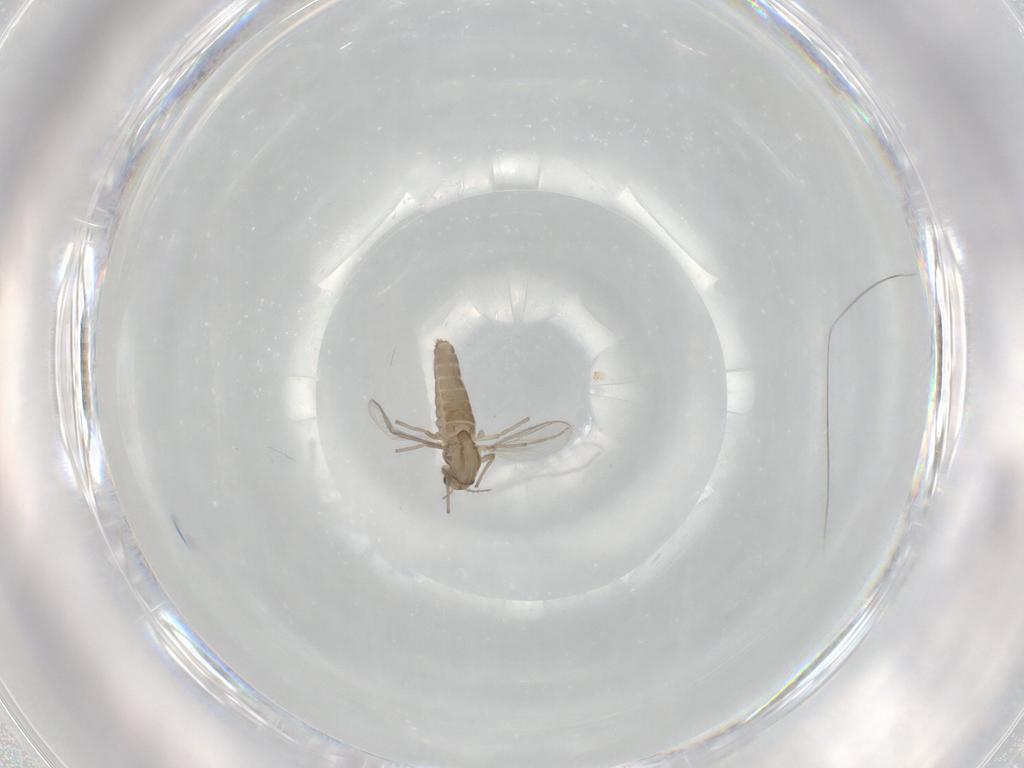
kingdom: Animalia
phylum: Arthropoda
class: Insecta
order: Diptera
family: Chironomidae
